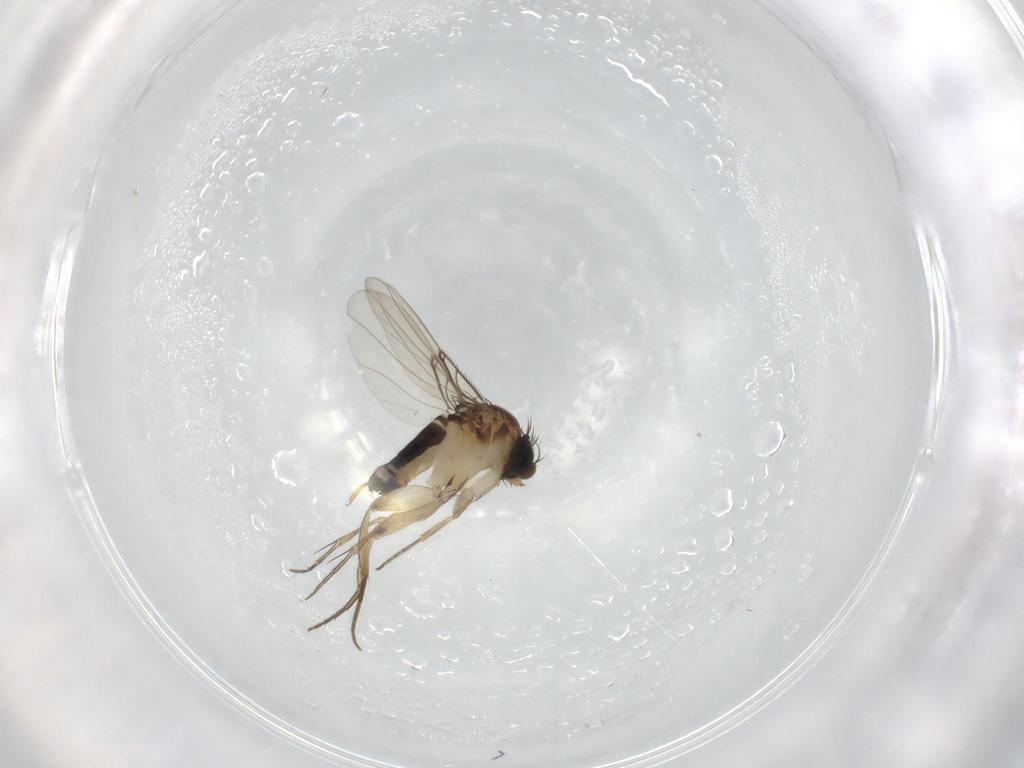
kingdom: Animalia
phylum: Arthropoda
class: Insecta
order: Diptera
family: Phoridae
